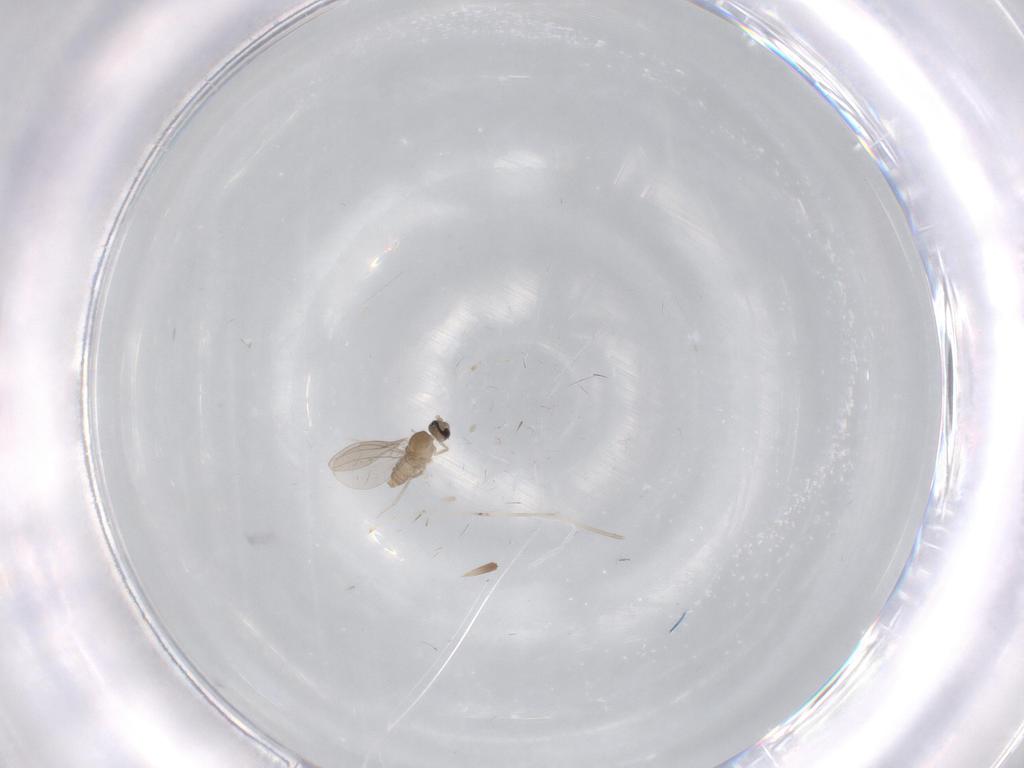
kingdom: Animalia
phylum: Arthropoda
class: Insecta
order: Diptera
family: Cecidomyiidae
